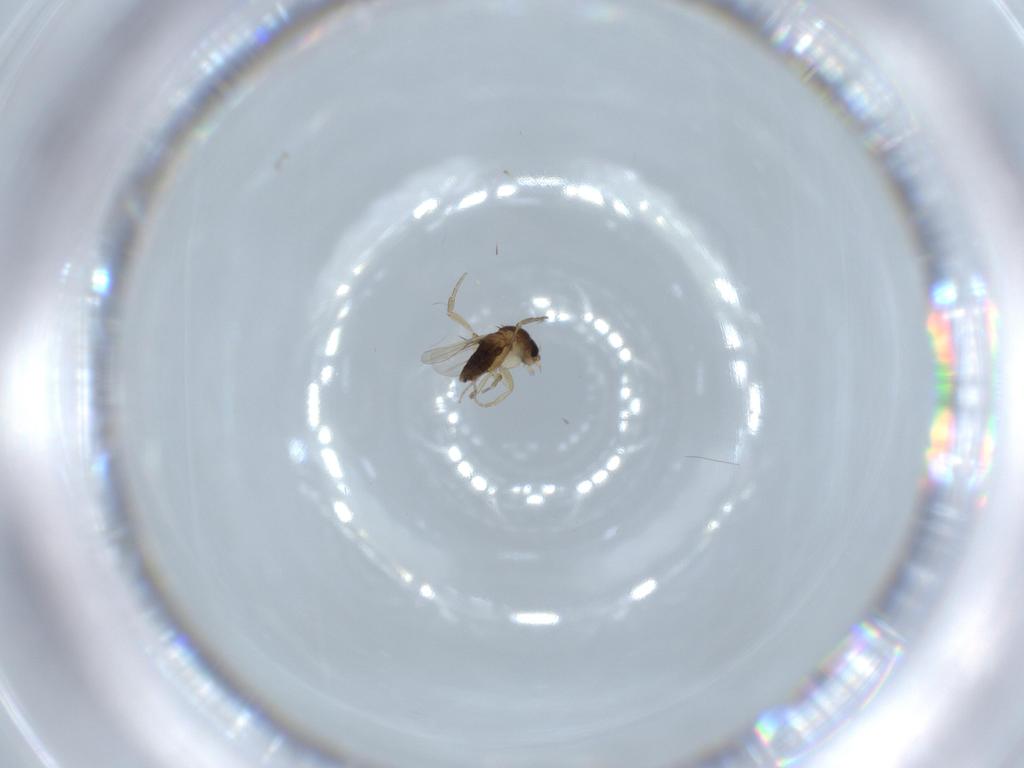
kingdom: Animalia
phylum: Arthropoda
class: Insecta
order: Diptera
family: Phoridae
